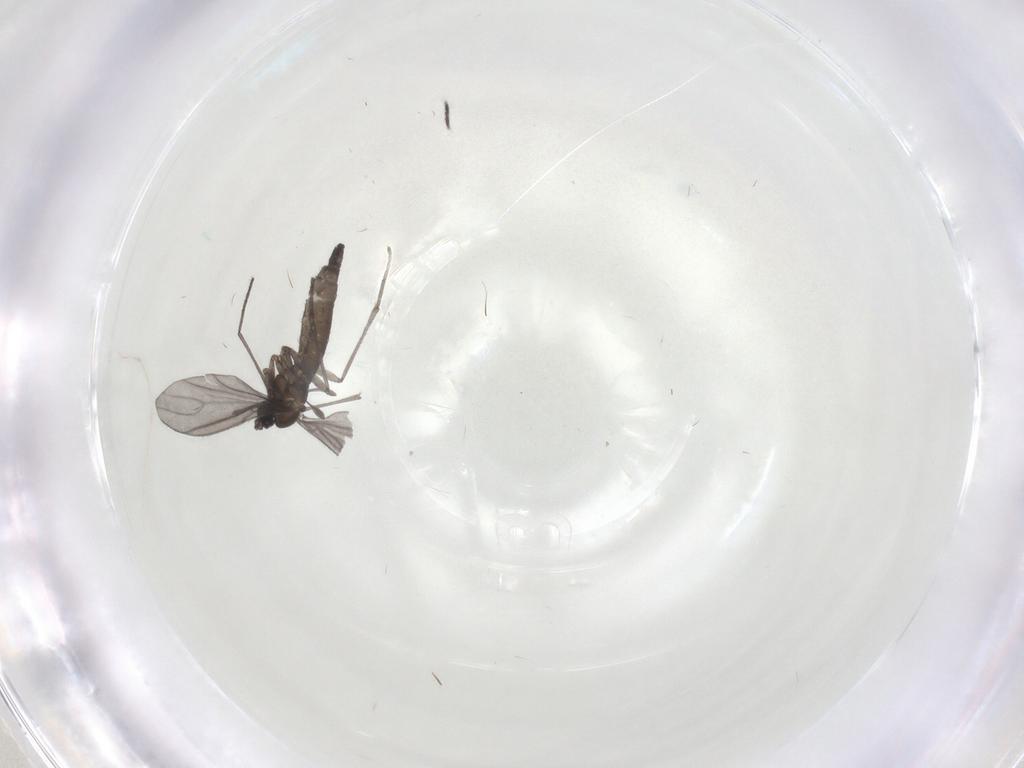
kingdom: Animalia
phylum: Arthropoda
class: Insecta
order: Diptera
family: Sciaridae
